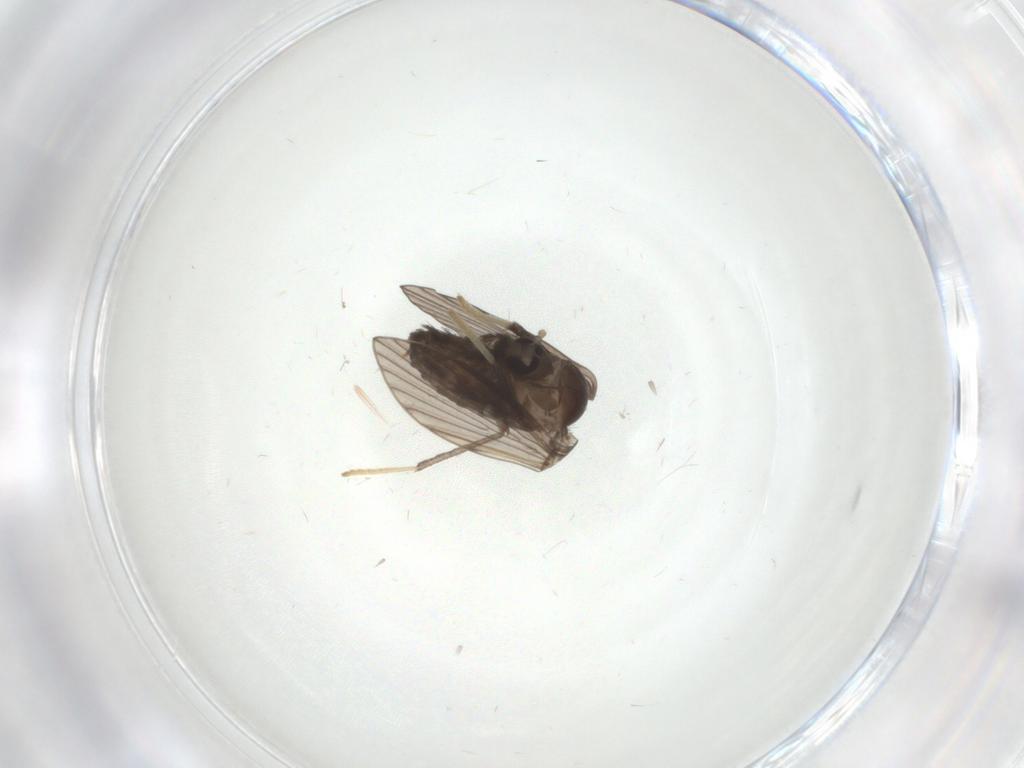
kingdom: Animalia
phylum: Arthropoda
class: Insecta
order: Diptera
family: Psychodidae
